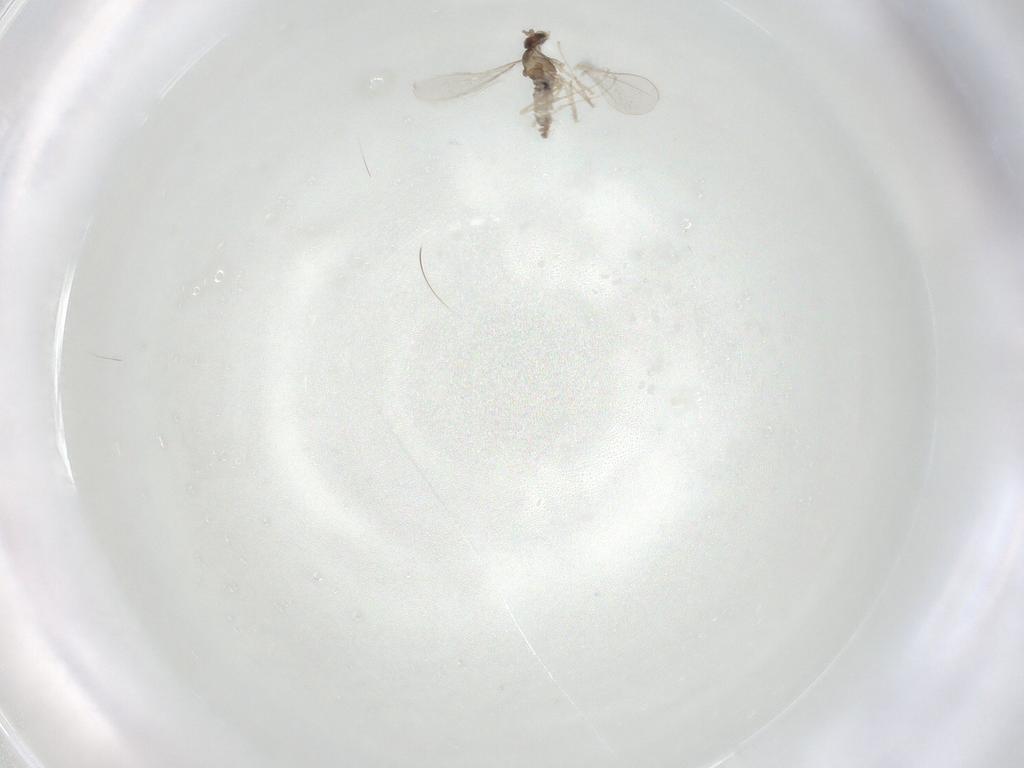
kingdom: Animalia
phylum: Arthropoda
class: Insecta
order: Diptera
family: Cecidomyiidae
